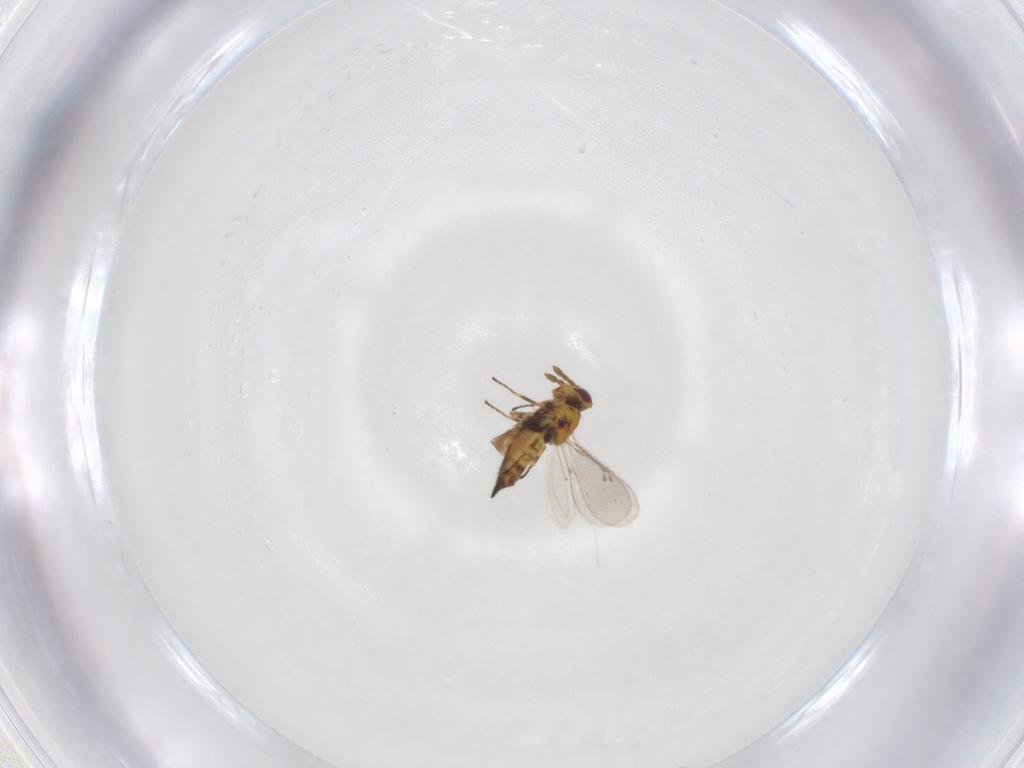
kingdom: Animalia
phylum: Arthropoda
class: Insecta
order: Hymenoptera
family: Eulophidae
